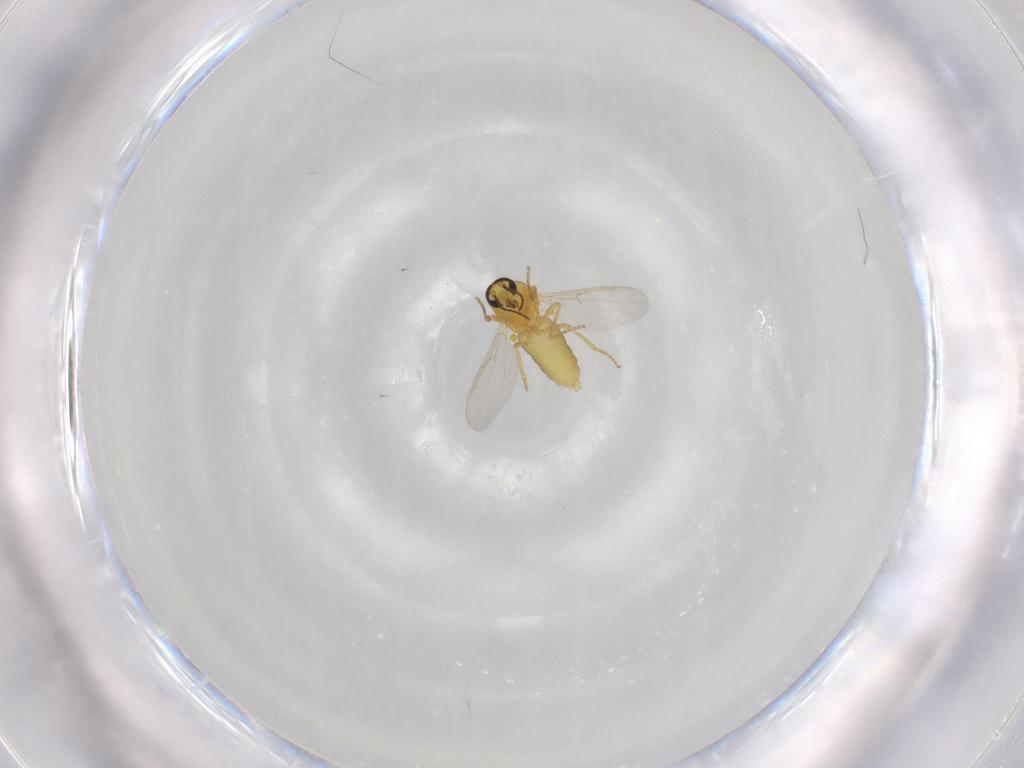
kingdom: Animalia
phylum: Arthropoda
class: Insecta
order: Diptera
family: Ceratopogonidae
